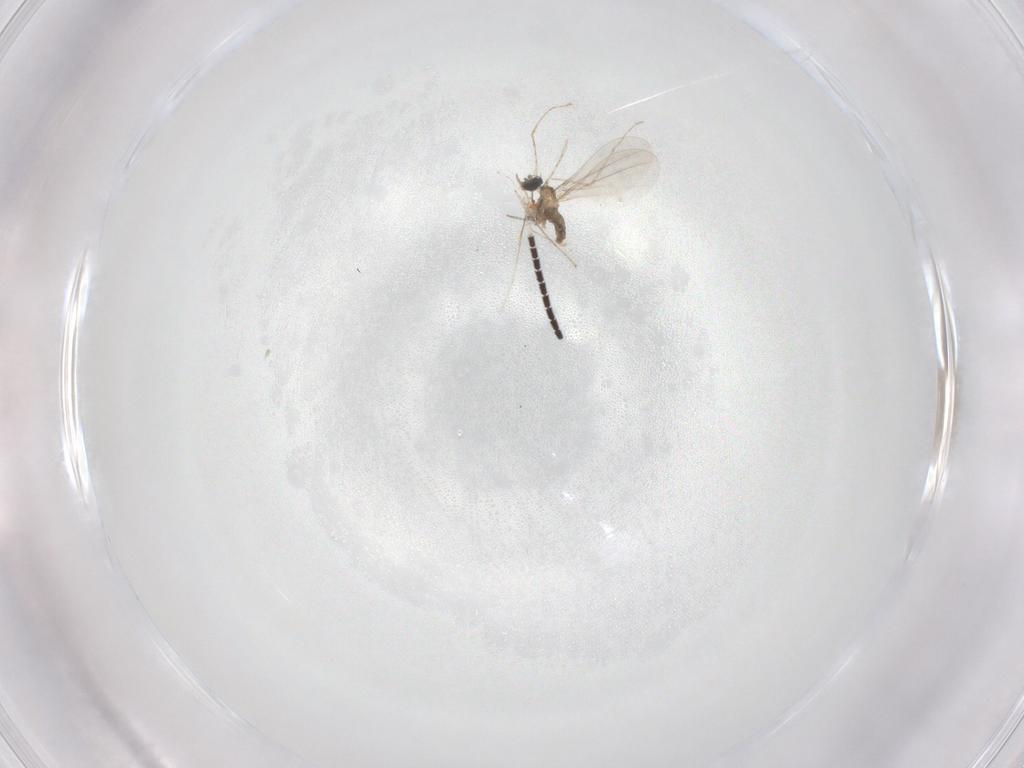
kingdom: Animalia
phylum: Arthropoda
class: Insecta
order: Diptera
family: Cecidomyiidae
